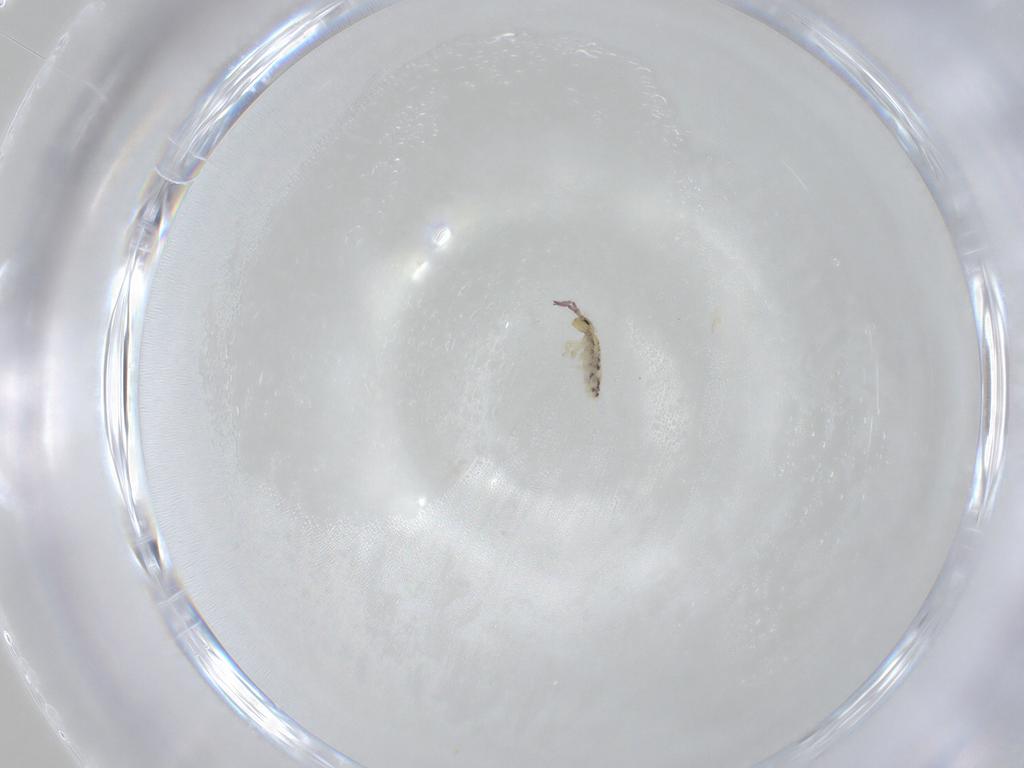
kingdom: Animalia
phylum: Arthropoda
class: Collembola
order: Entomobryomorpha
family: Entomobryidae
